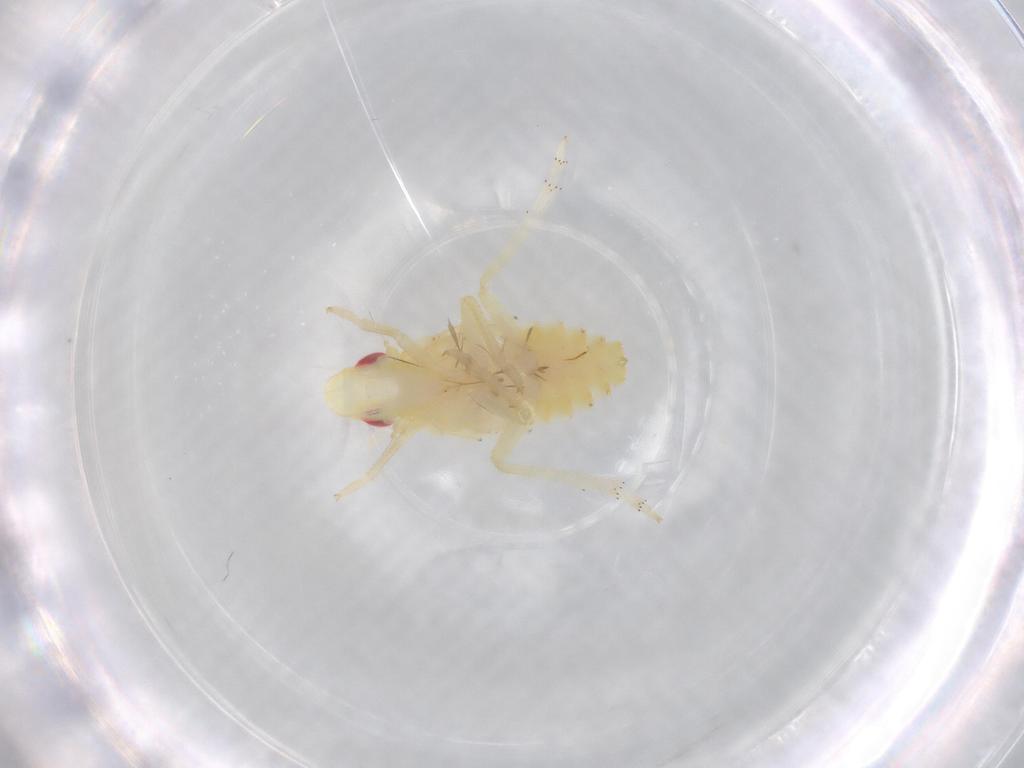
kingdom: Animalia
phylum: Arthropoda
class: Insecta
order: Hemiptera
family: Tropiduchidae
